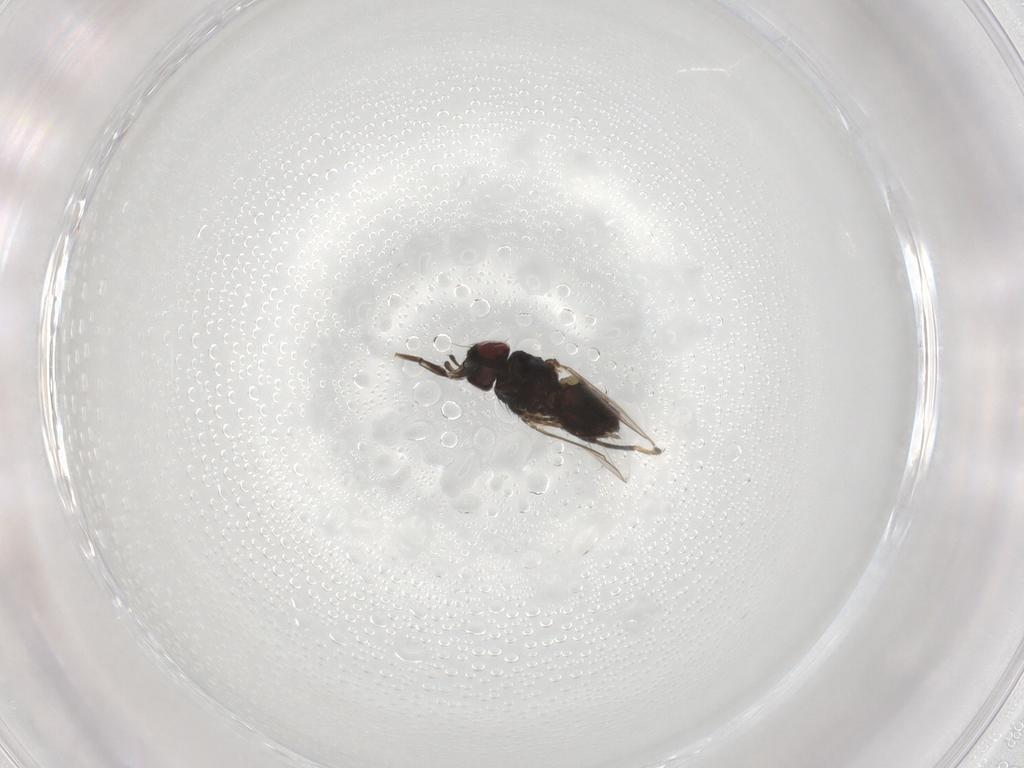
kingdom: Animalia
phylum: Arthropoda
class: Insecta
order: Diptera
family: Milichiidae
